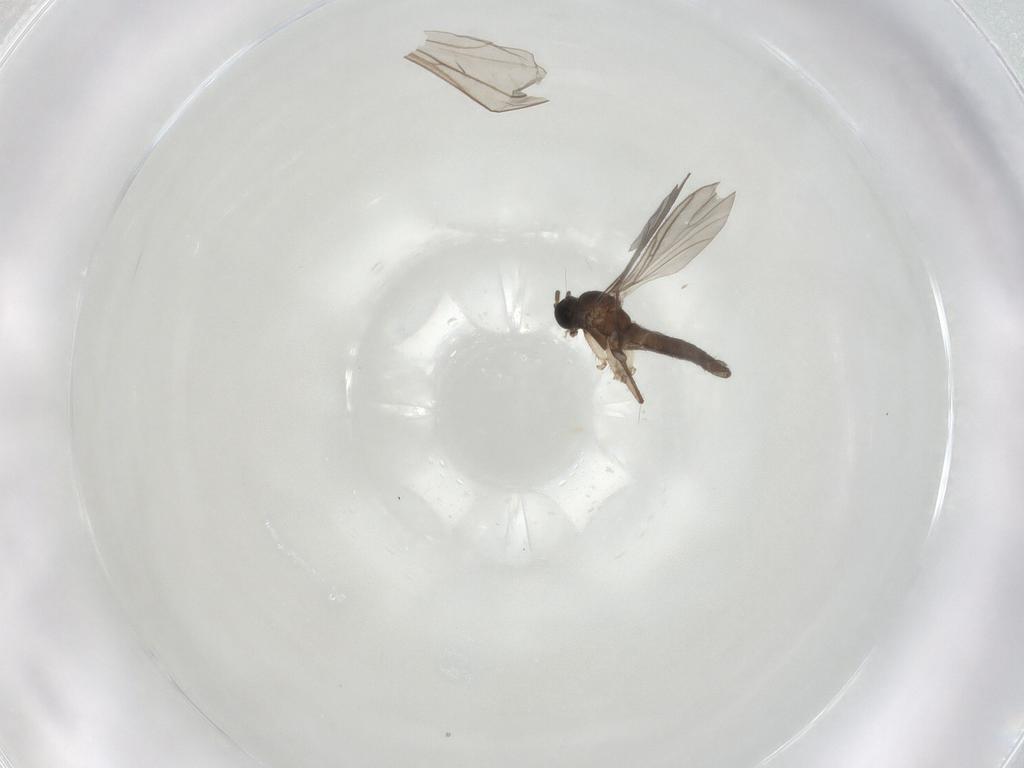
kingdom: Animalia
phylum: Arthropoda
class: Insecta
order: Diptera
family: Sciaridae
